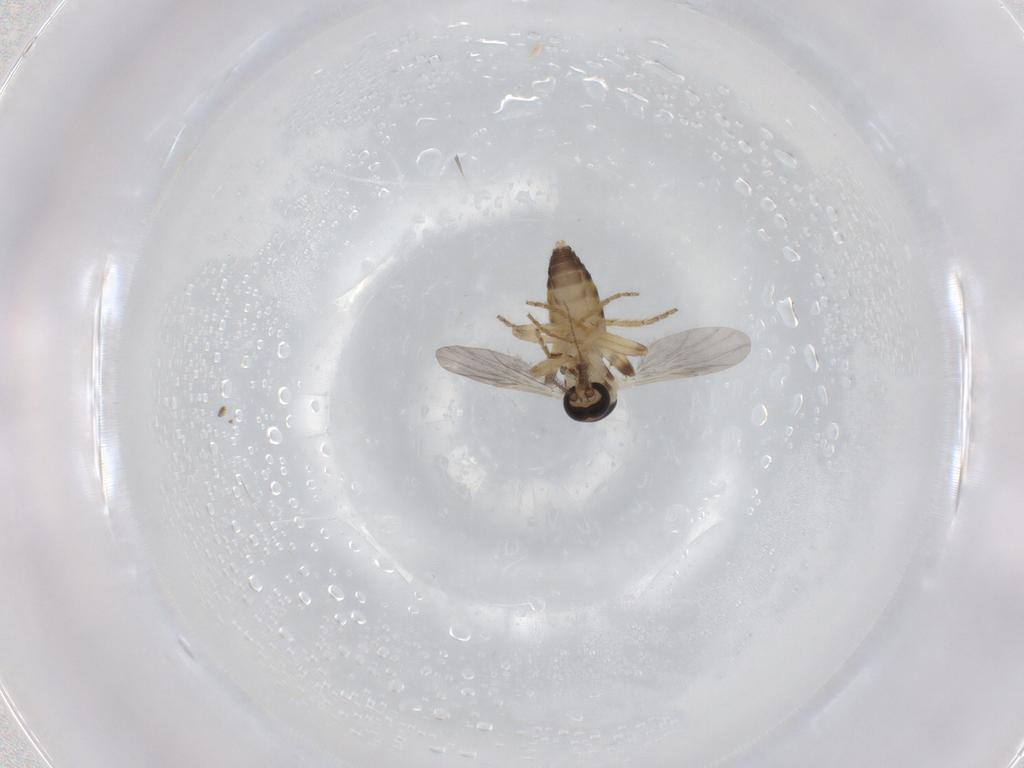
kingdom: Animalia
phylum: Arthropoda
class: Insecta
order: Diptera
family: Ceratopogonidae
